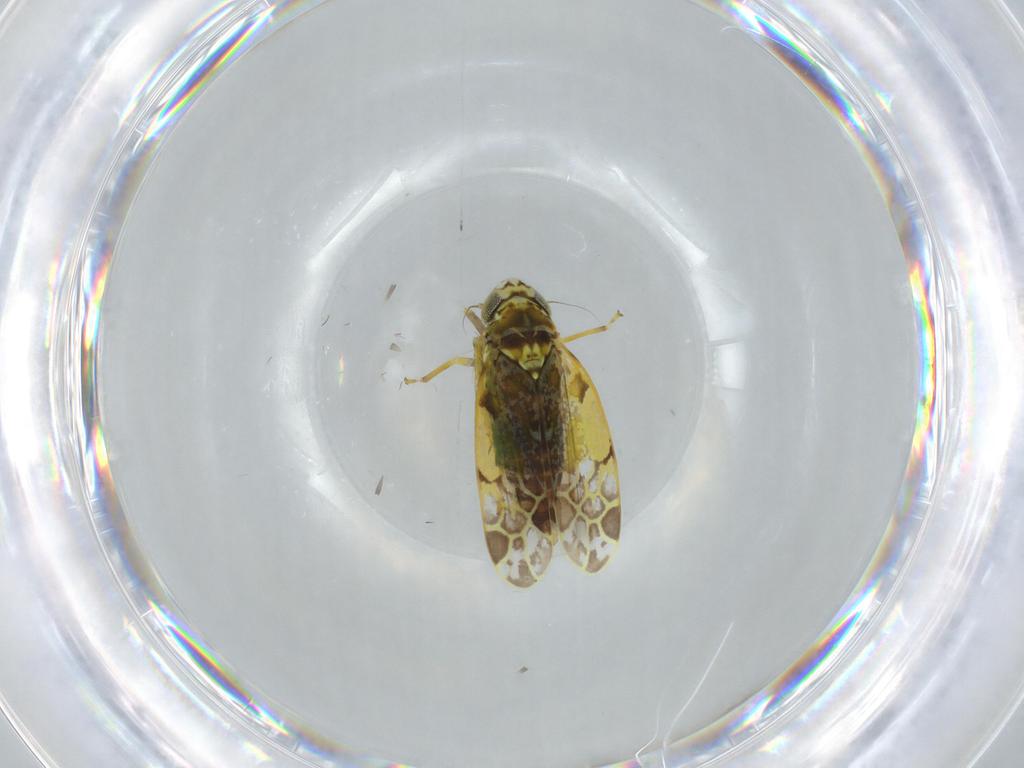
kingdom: Animalia
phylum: Arthropoda
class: Insecta
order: Hemiptera
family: Cicadellidae
